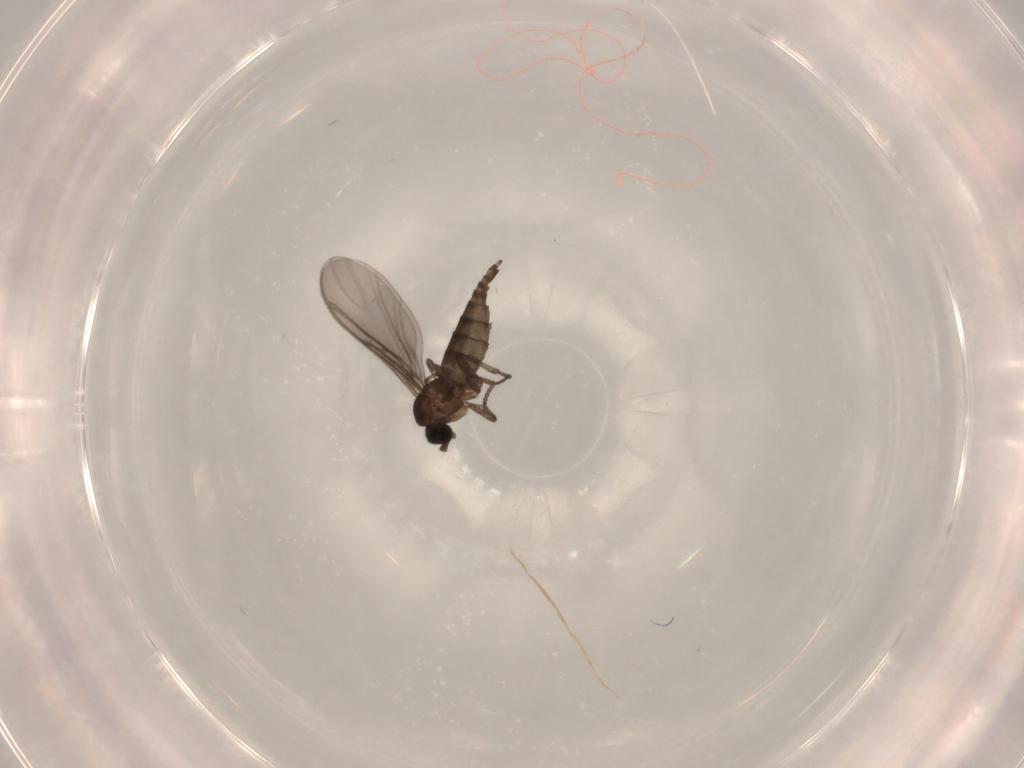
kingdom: Animalia
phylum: Arthropoda
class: Insecta
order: Diptera
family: Sciaridae
